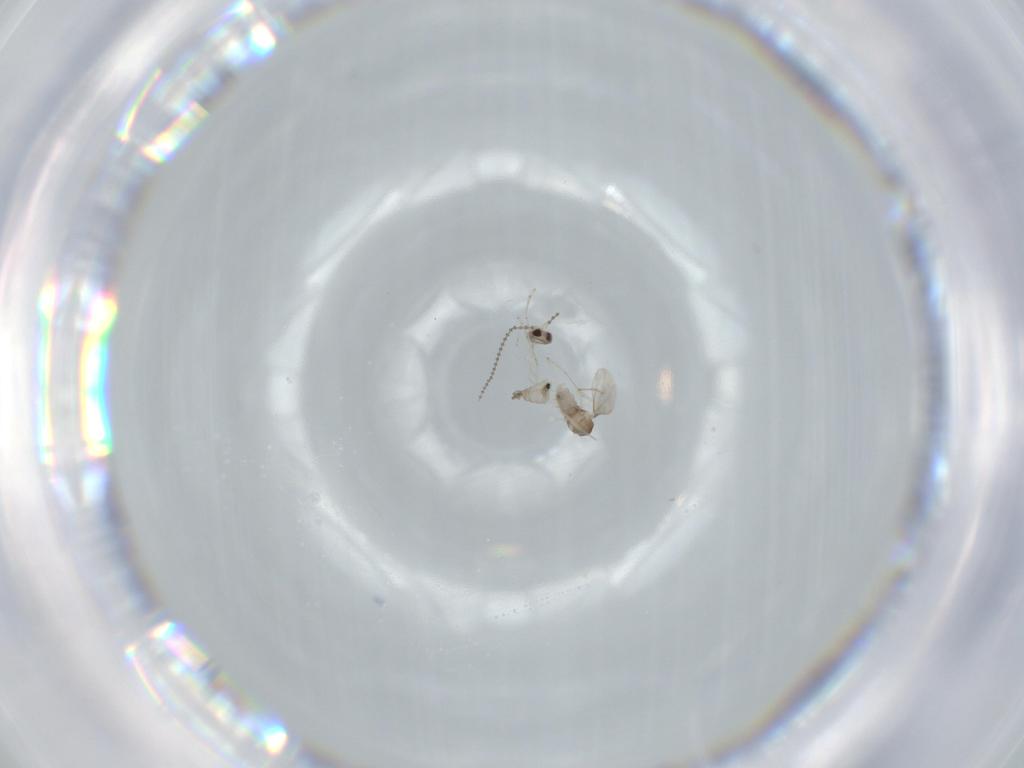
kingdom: Animalia
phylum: Arthropoda
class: Insecta
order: Diptera
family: Cecidomyiidae
